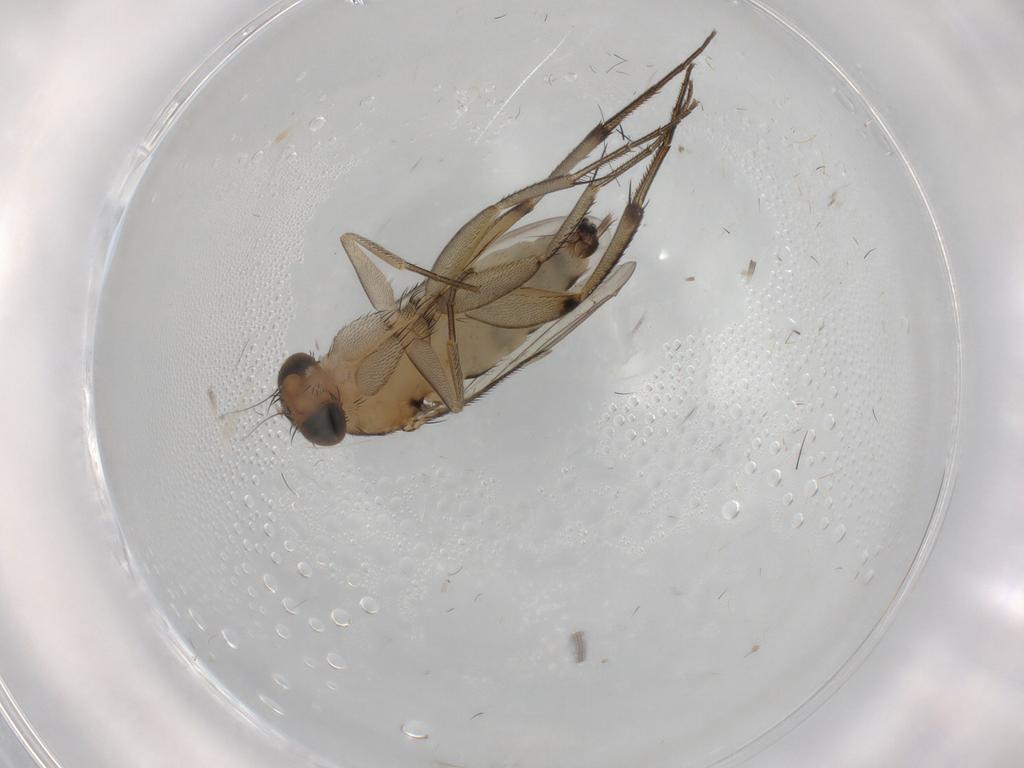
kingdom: Animalia
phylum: Arthropoda
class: Insecta
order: Diptera
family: Phoridae
